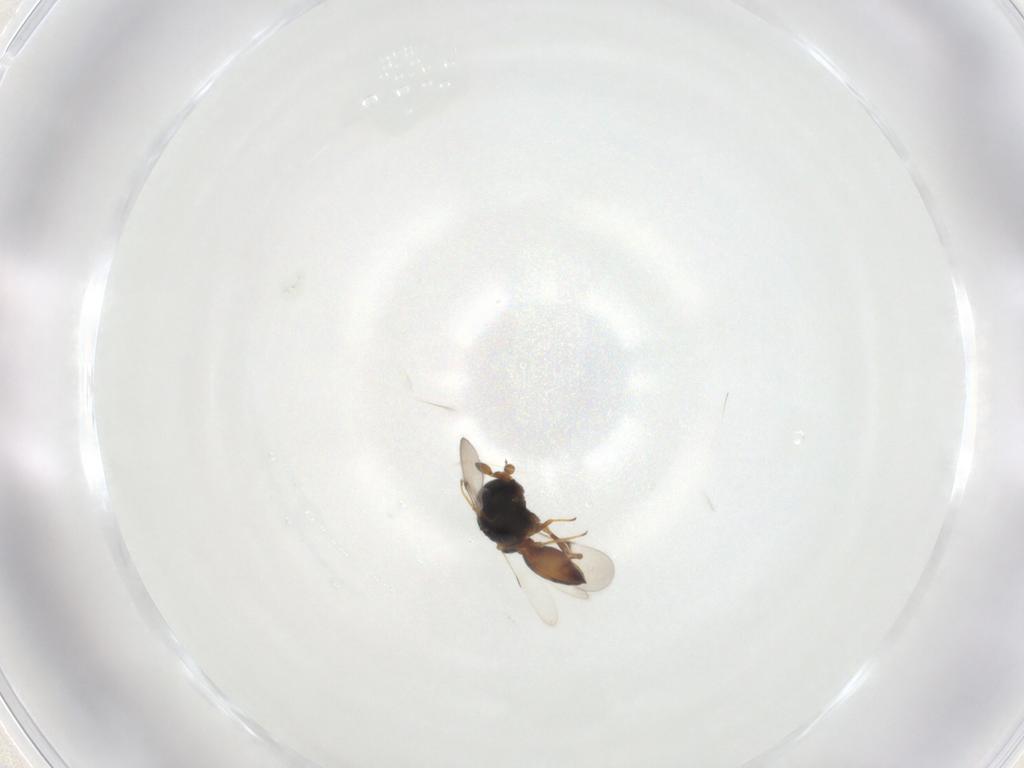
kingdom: Animalia
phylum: Arthropoda
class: Insecta
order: Hymenoptera
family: Scelionidae
